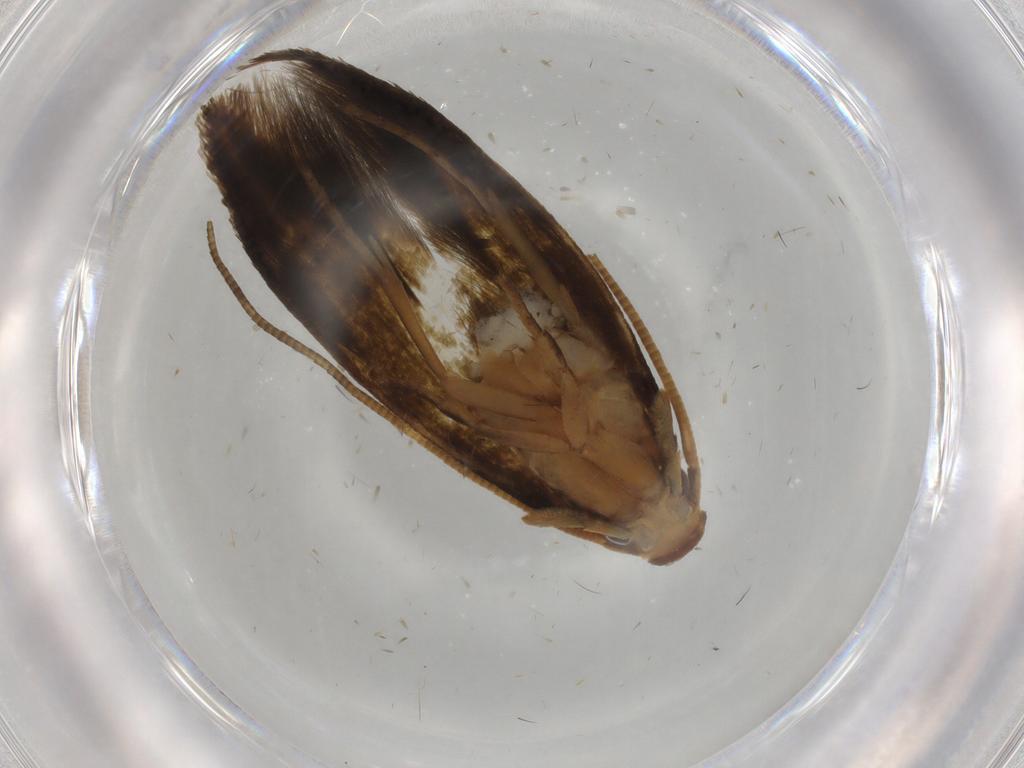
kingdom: Animalia
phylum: Arthropoda
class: Insecta
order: Lepidoptera
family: Tineidae
